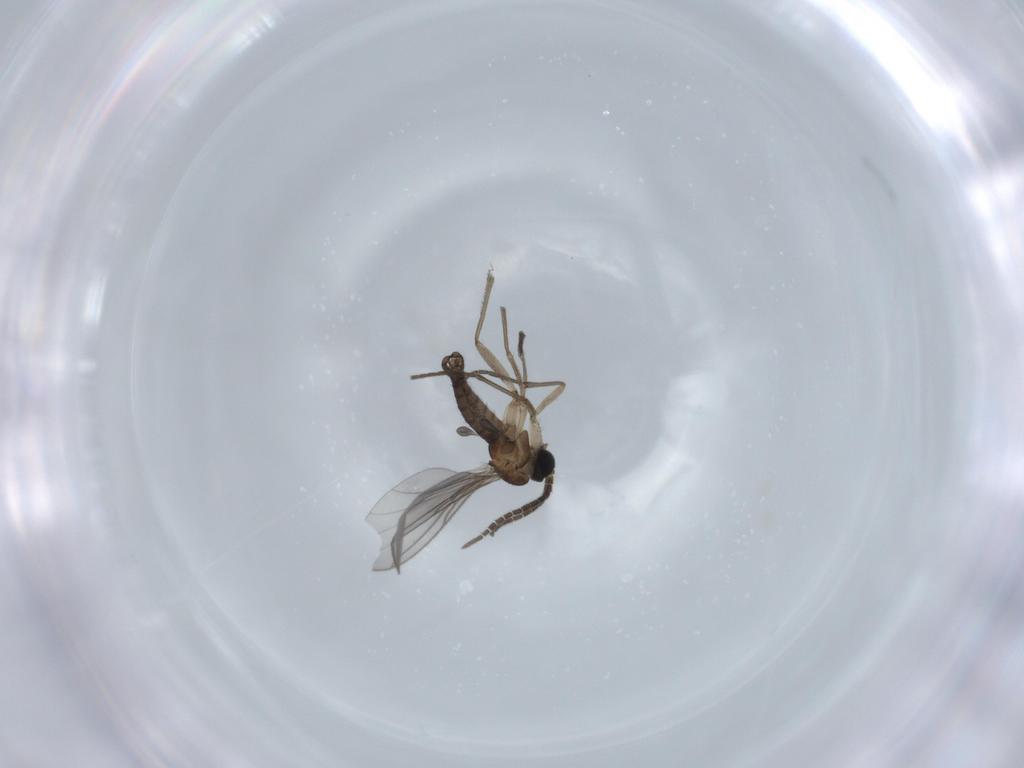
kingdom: Animalia
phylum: Arthropoda
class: Insecta
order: Diptera
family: Sciaridae
